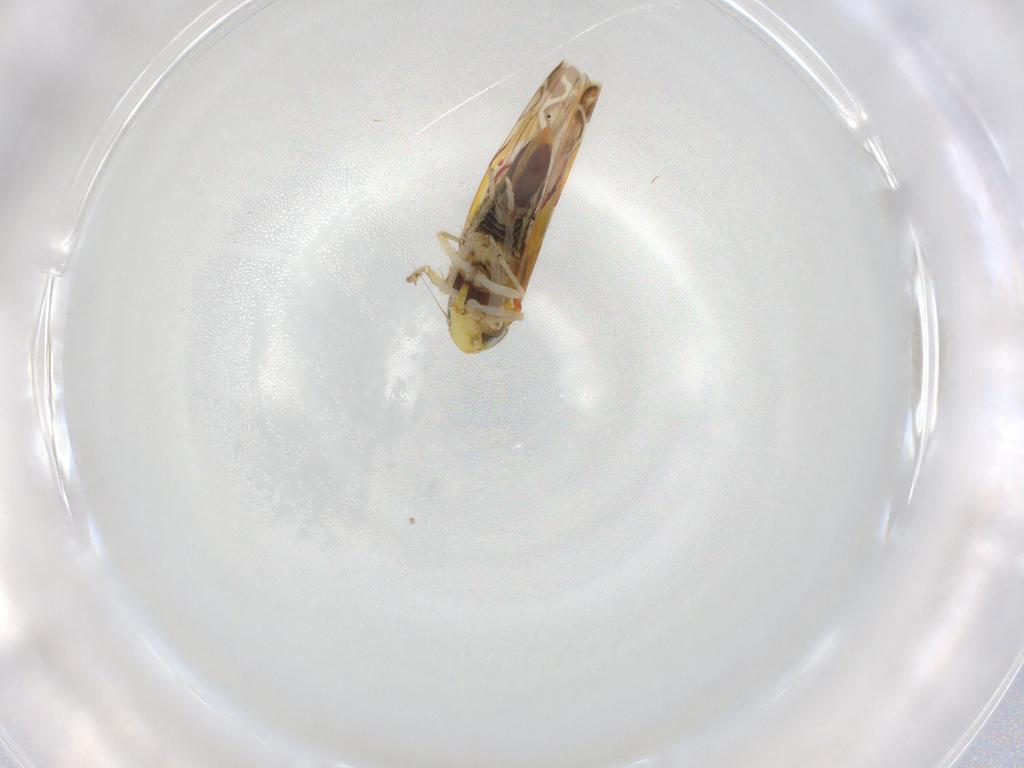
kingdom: Animalia
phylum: Arthropoda
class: Insecta
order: Hemiptera
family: Cicadellidae
